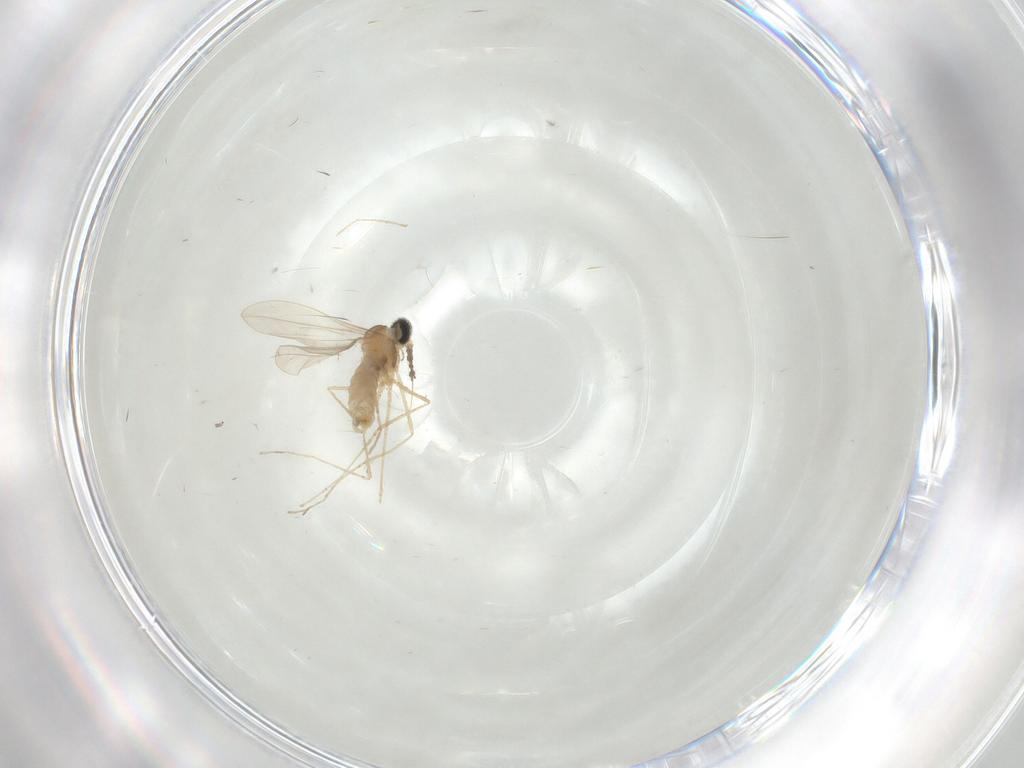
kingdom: Animalia
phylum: Arthropoda
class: Insecta
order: Diptera
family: Cecidomyiidae
